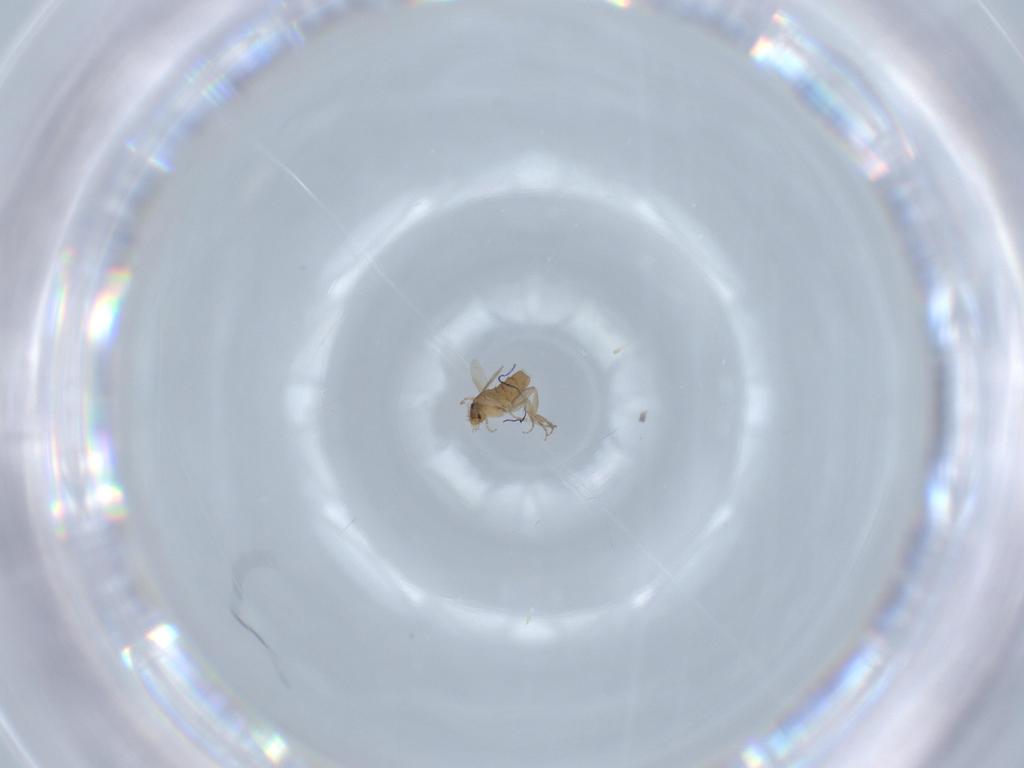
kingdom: Animalia
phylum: Arthropoda
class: Insecta
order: Diptera
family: Phoridae
